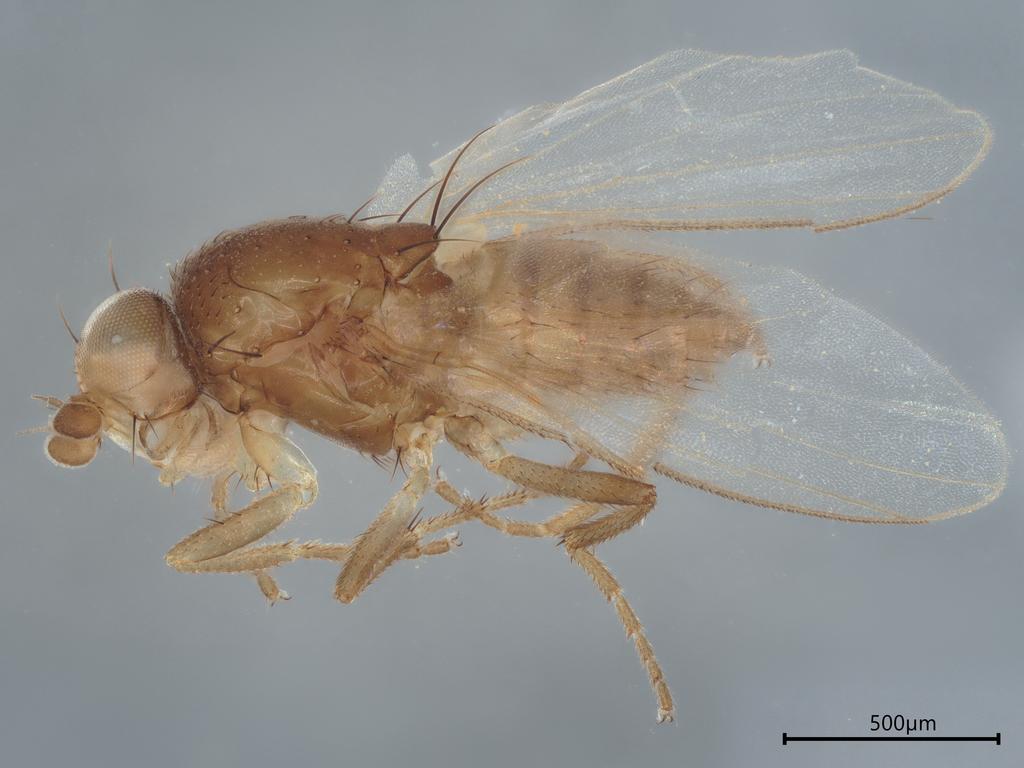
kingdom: Animalia
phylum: Arthropoda
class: Insecta
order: Diptera
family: Heleomyzidae
